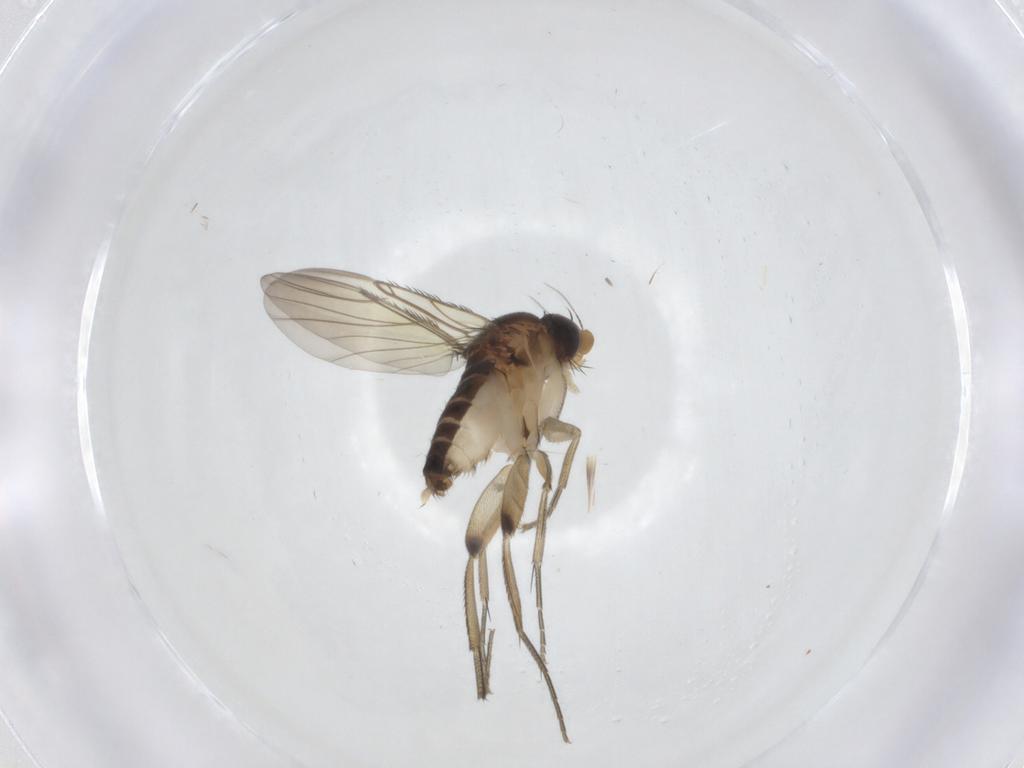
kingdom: Animalia
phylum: Arthropoda
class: Insecta
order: Diptera
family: Phoridae
